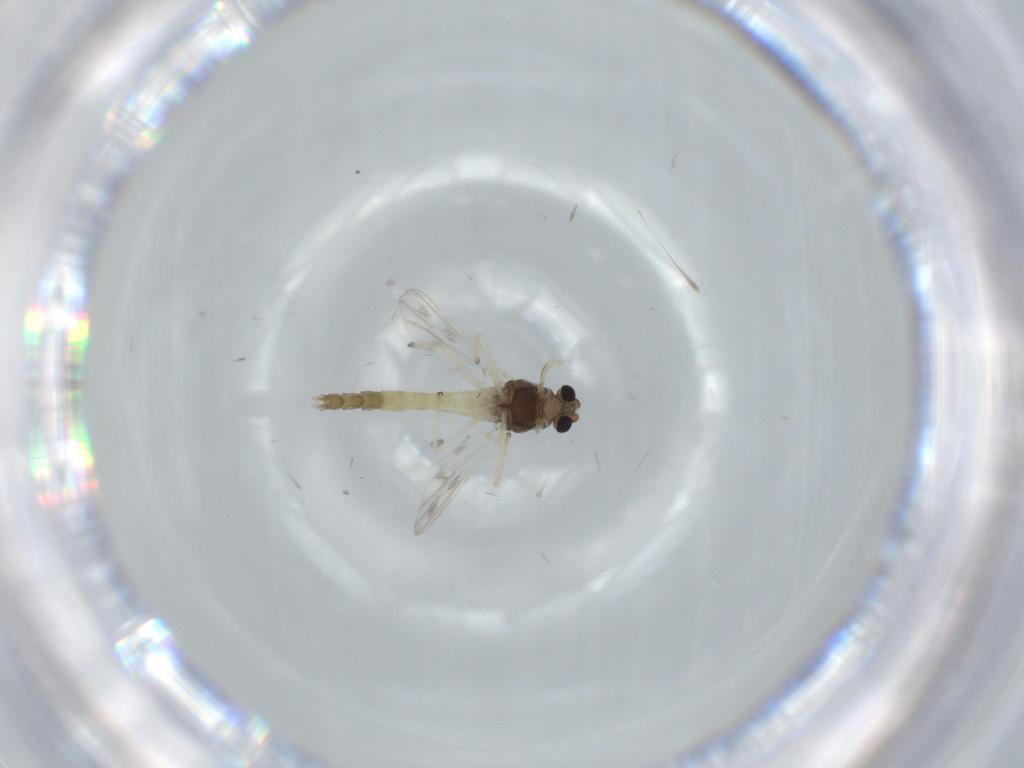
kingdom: Animalia
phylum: Arthropoda
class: Insecta
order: Diptera
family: Chironomidae
